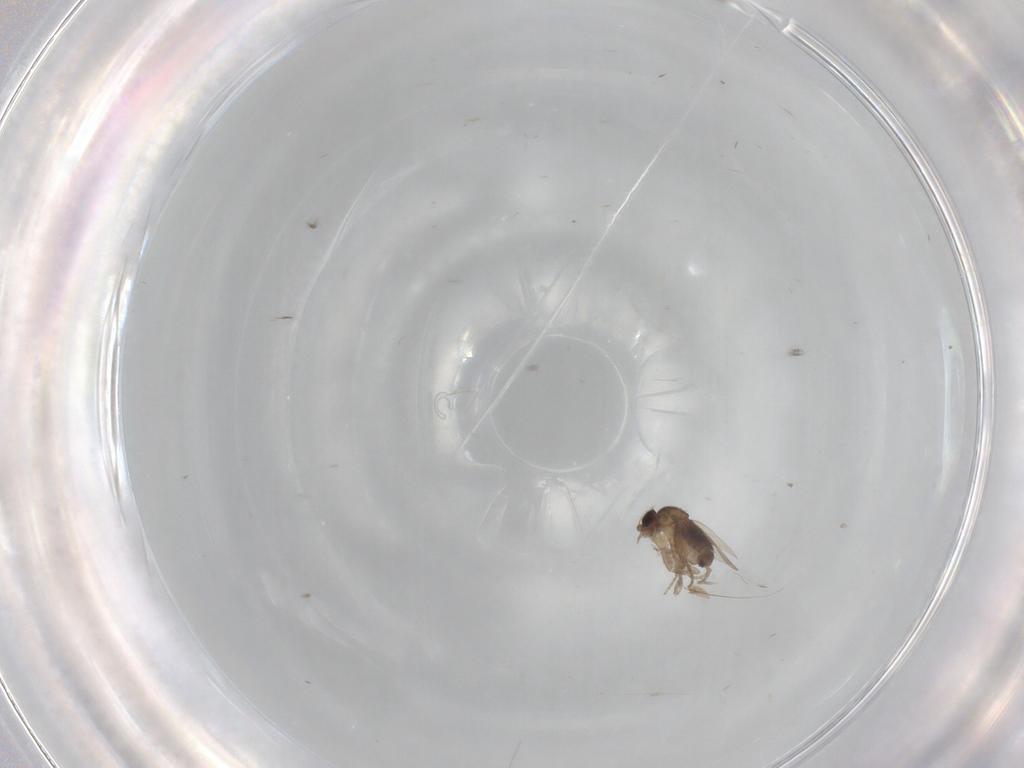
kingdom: Animalia
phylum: Arthropoda
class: Insecta
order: Diptera
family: Phoridae
